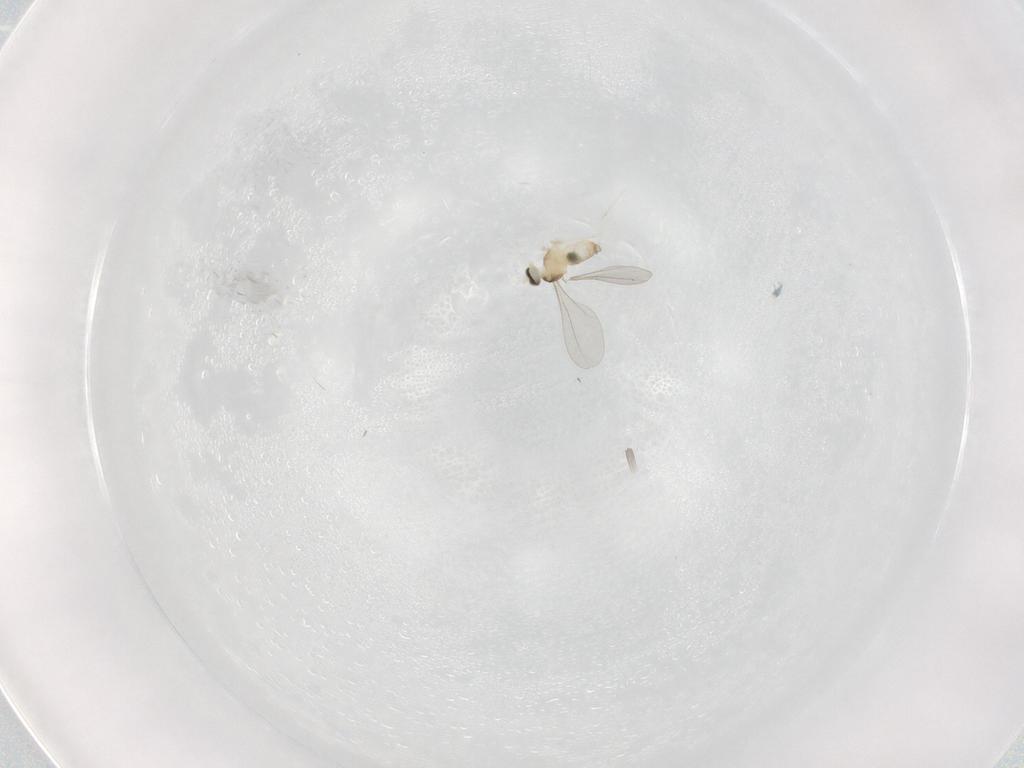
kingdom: Animalia
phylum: Arthropoda
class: Insecta
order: Diptera
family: Cecidomyiidae
